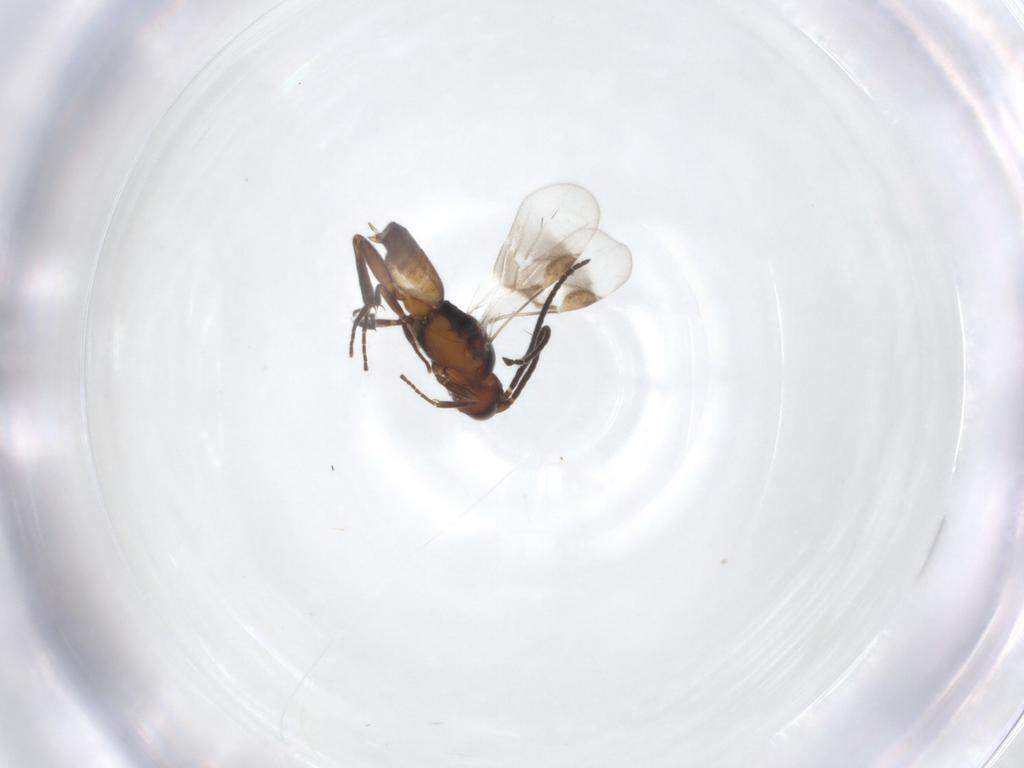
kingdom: Animalia
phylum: Arthropoda
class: Insecta
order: Hymenoptera
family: Braconidae
